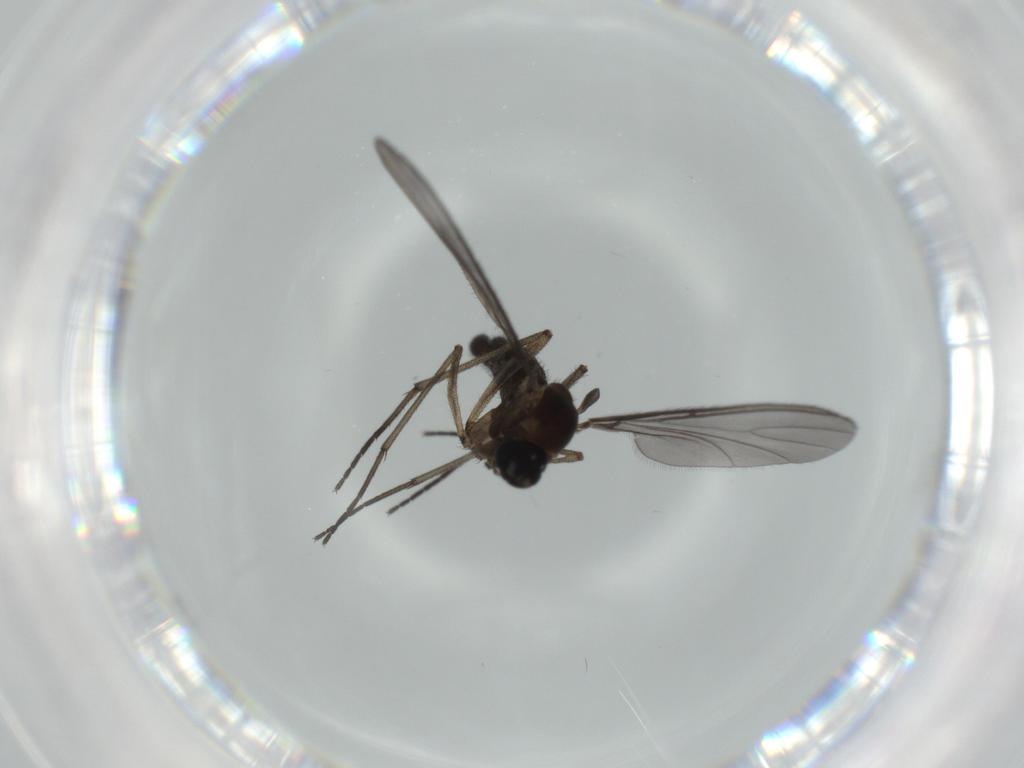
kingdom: Animalia
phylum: Arthropoda
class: Insecta
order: Diptera
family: Sciaridae
